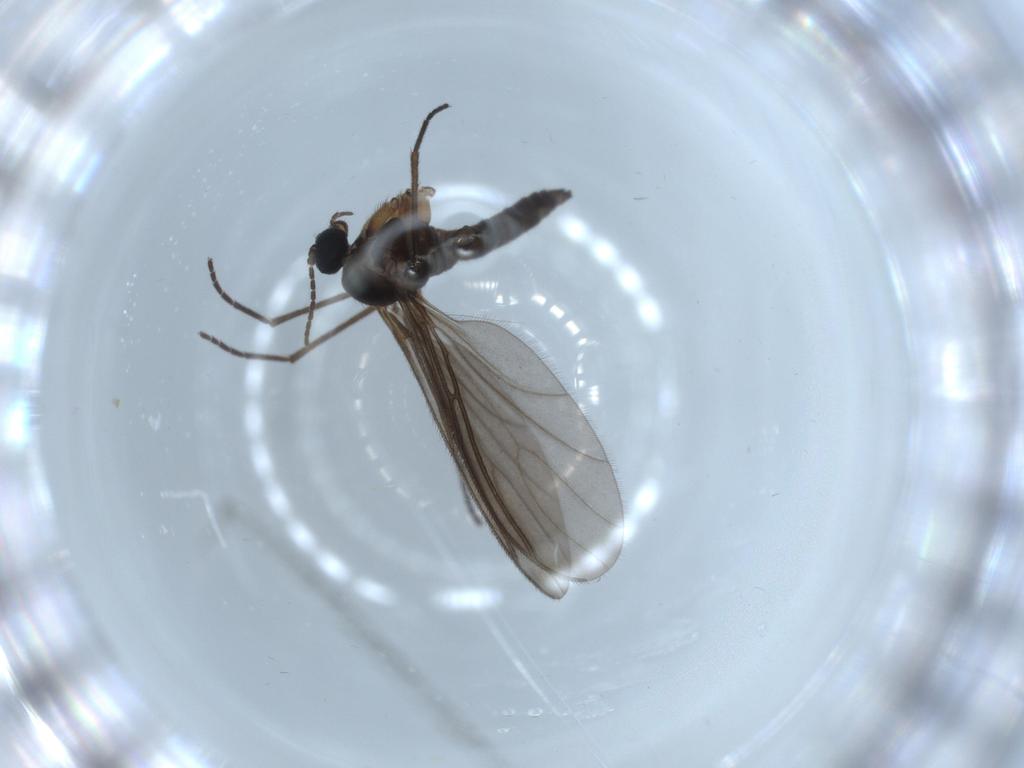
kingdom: Animalia
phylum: Arthropoda
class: Insecta
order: Diptera
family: Sciaridae
